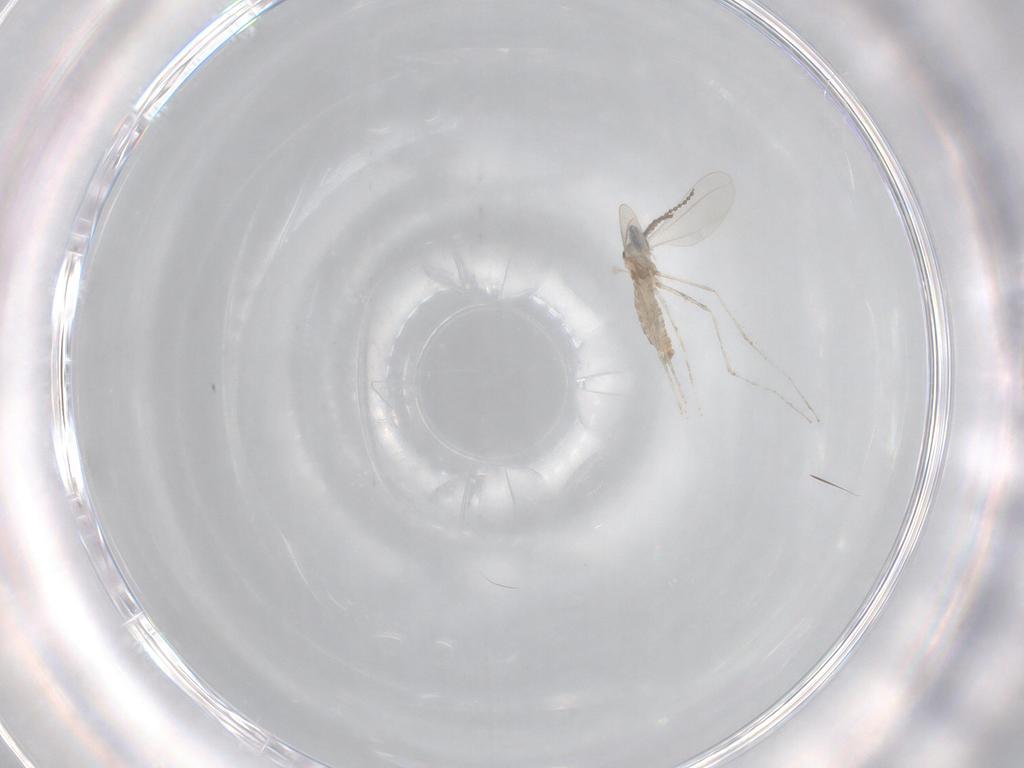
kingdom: Animalia
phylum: Arthropoda
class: Insecta
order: Diptera
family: Cecidomyiidae
